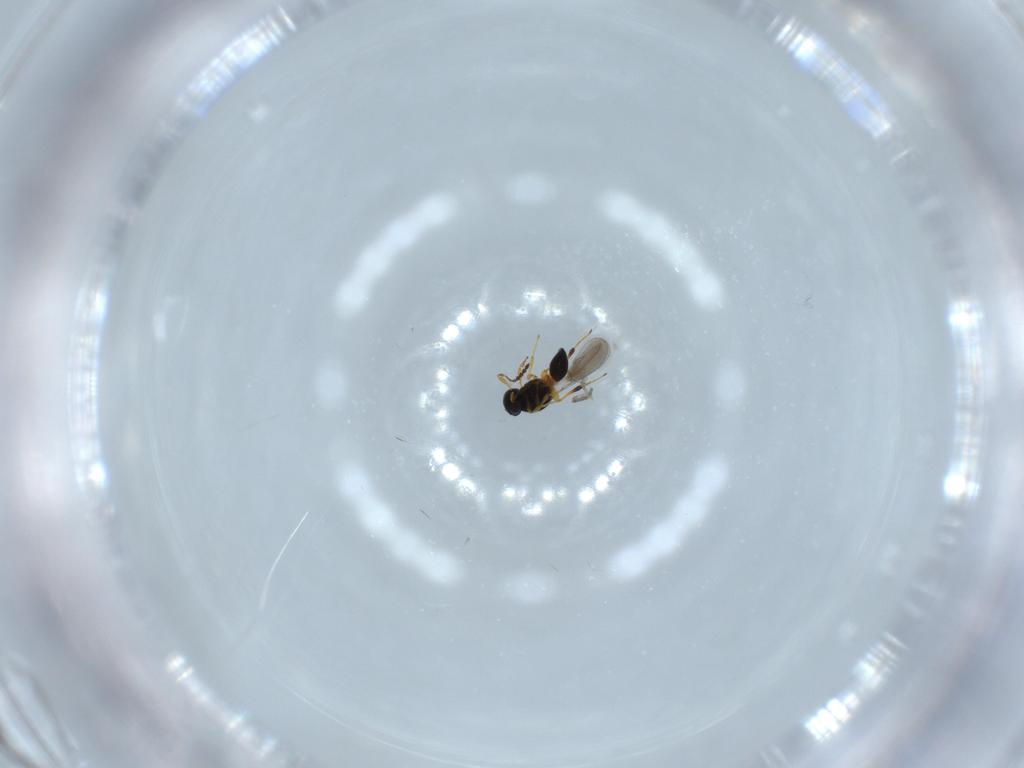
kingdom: Animalia
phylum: Arthropoda
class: Insecta
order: Hymenoptera
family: Platygastridae
